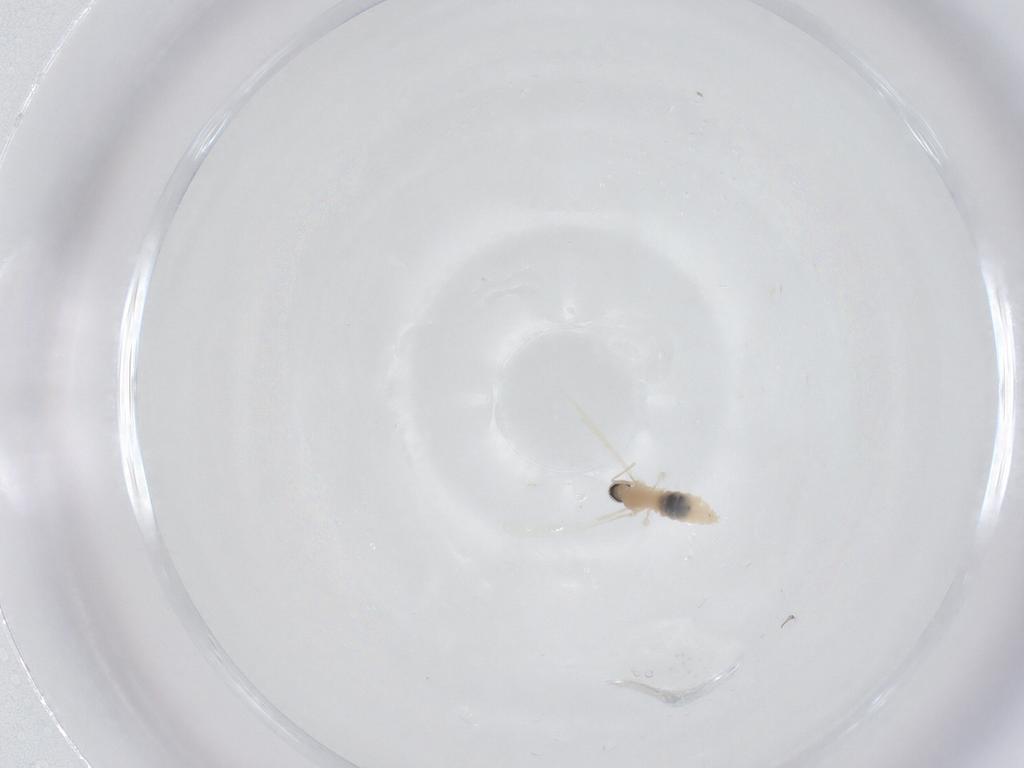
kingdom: Animalia
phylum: Arthropoda
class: Insecta
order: Diptera
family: Cecidomyiidae
